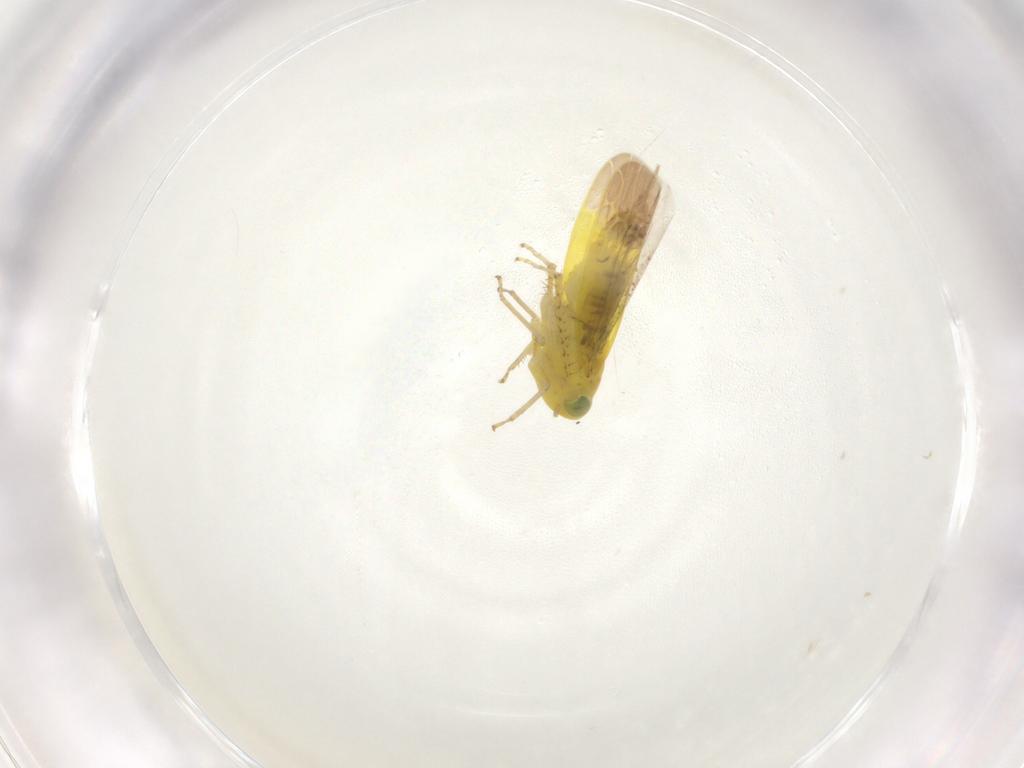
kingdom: Animalia
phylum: Arthropoda
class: Insecta
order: Hemiptera
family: Cicadellidae
